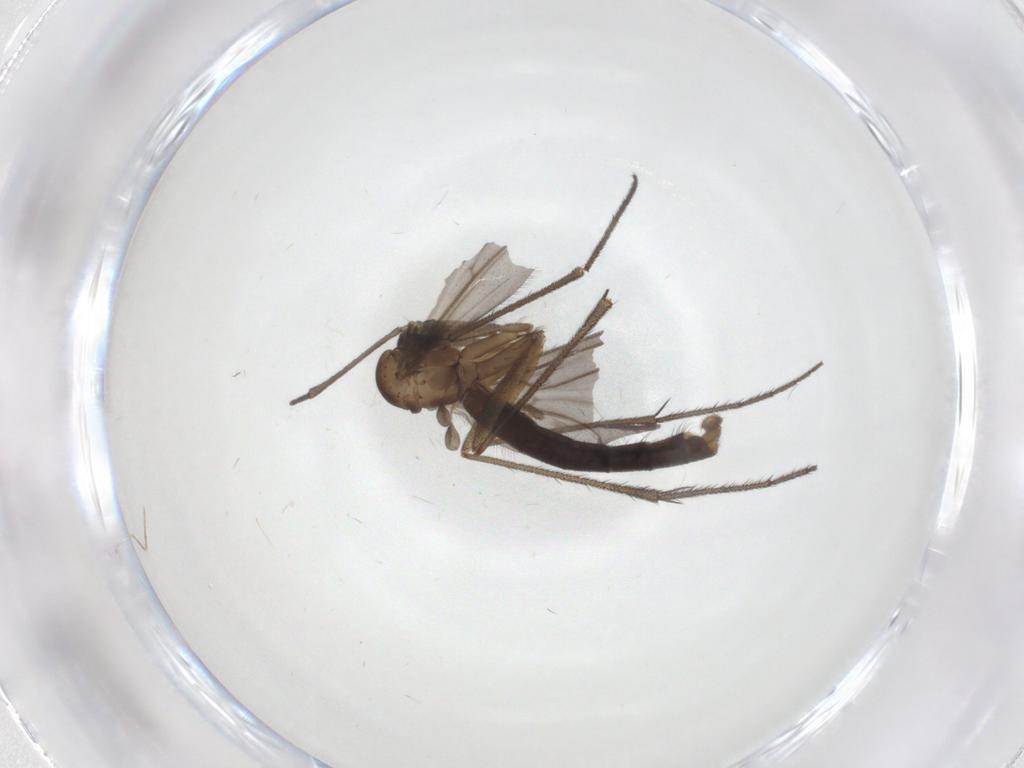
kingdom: Animalia
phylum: Arthropoda
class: Insecta
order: Diptera
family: Ditomyiidae
